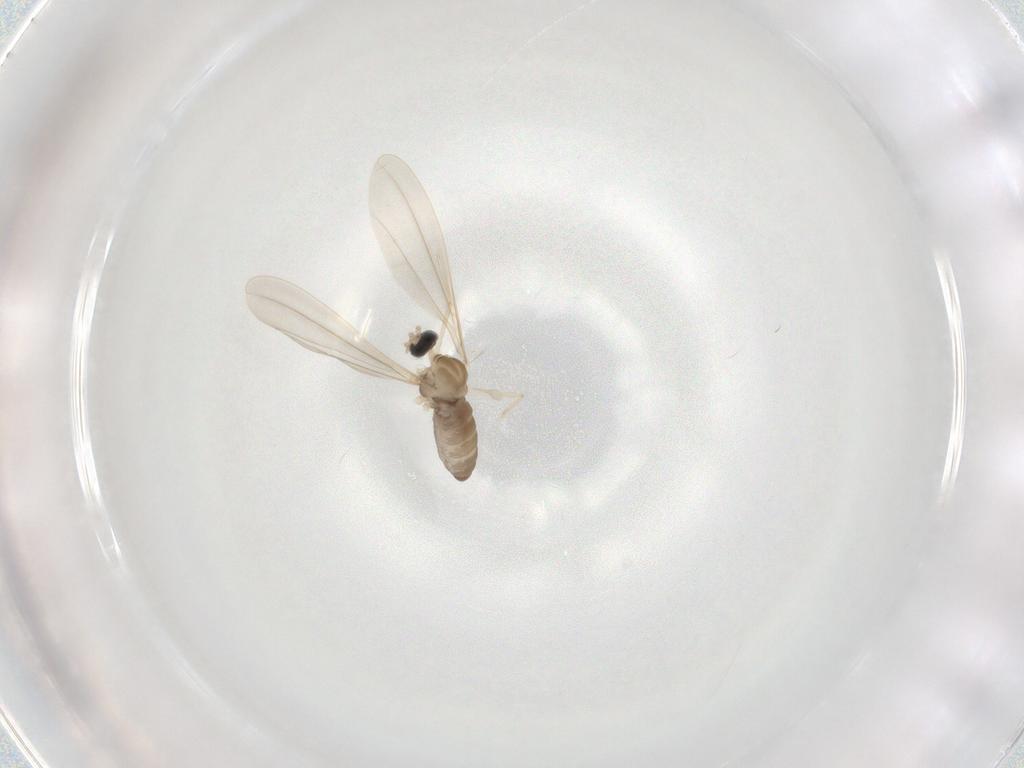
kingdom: Animalia
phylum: Arthropoda
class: Insecta
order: Diptera
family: Cecidomyiidae
